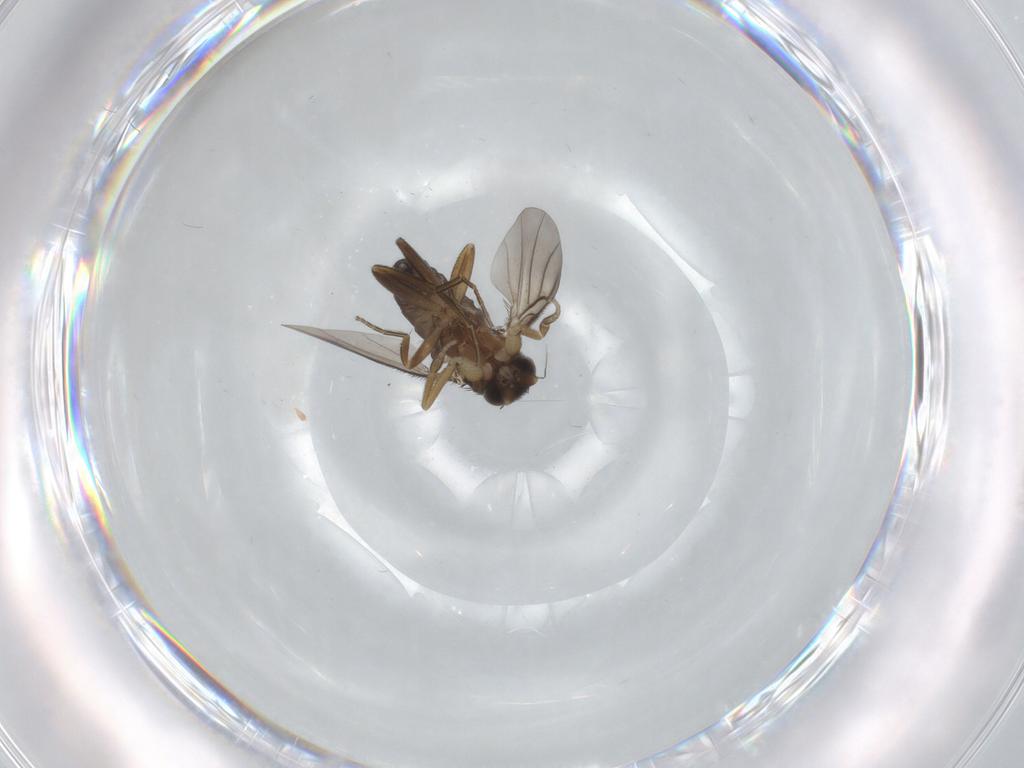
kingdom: Animalia
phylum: Arthropoda
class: Insecta
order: Diptera
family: Phoridae
